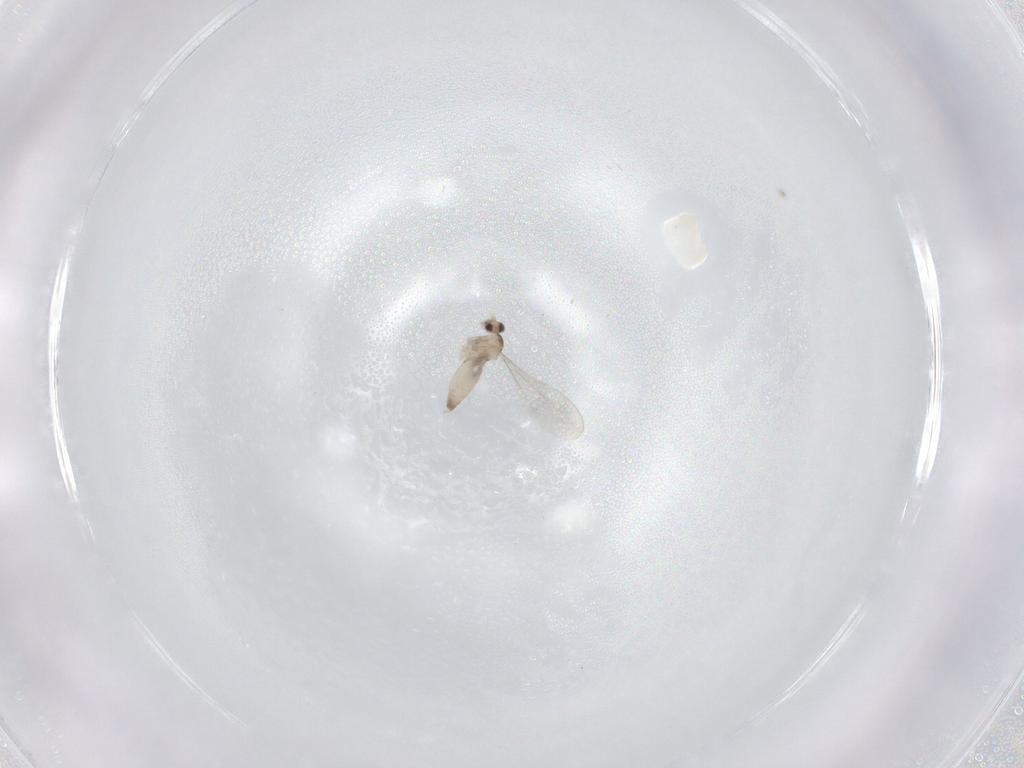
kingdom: Animalia
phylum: Arthropoda
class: Insecta
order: Diptera
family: Cecidomyiidae
